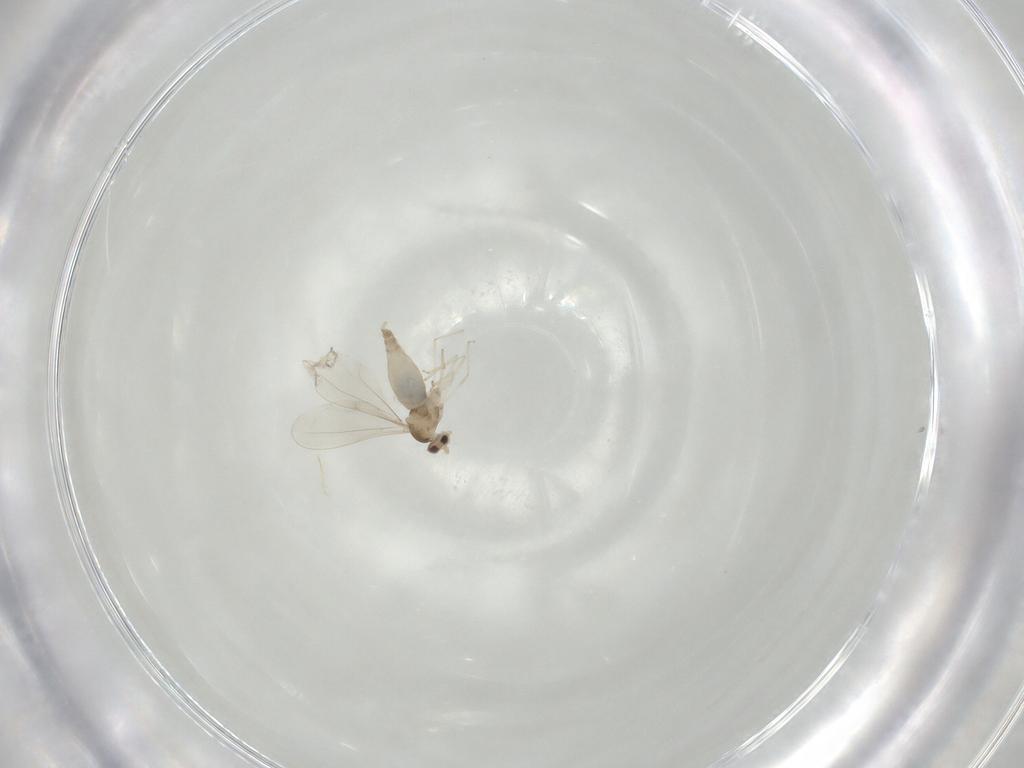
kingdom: Animalia
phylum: Arthropoda
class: Insecta
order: Diptera
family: Cecidomyiidae
